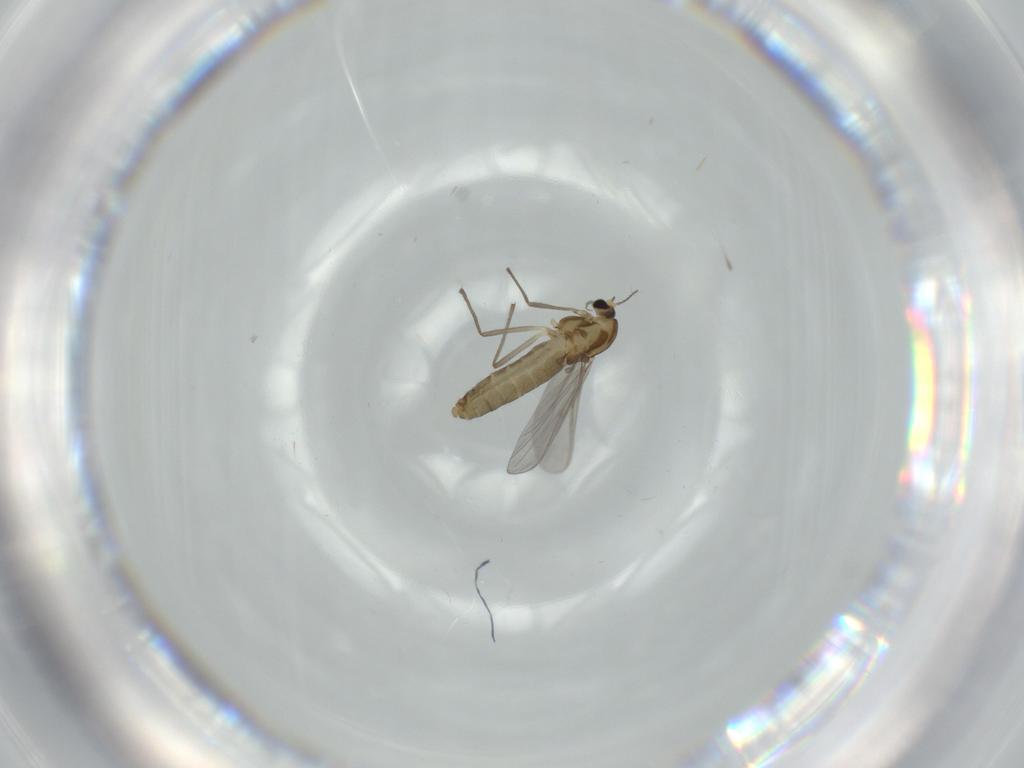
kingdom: Animalia
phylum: Arthropoda
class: Insecta
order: Diptera
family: Chironomidae
